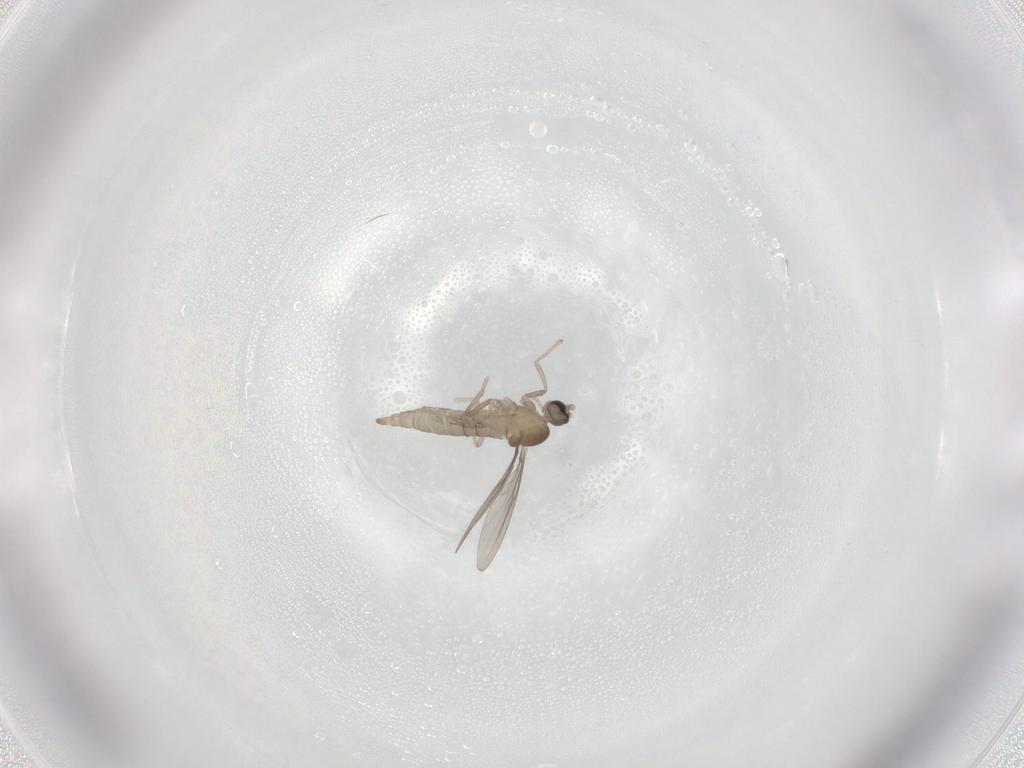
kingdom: Animalia
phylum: Arthropoda
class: Insecta
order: Diptera
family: Cecidomyiidae
